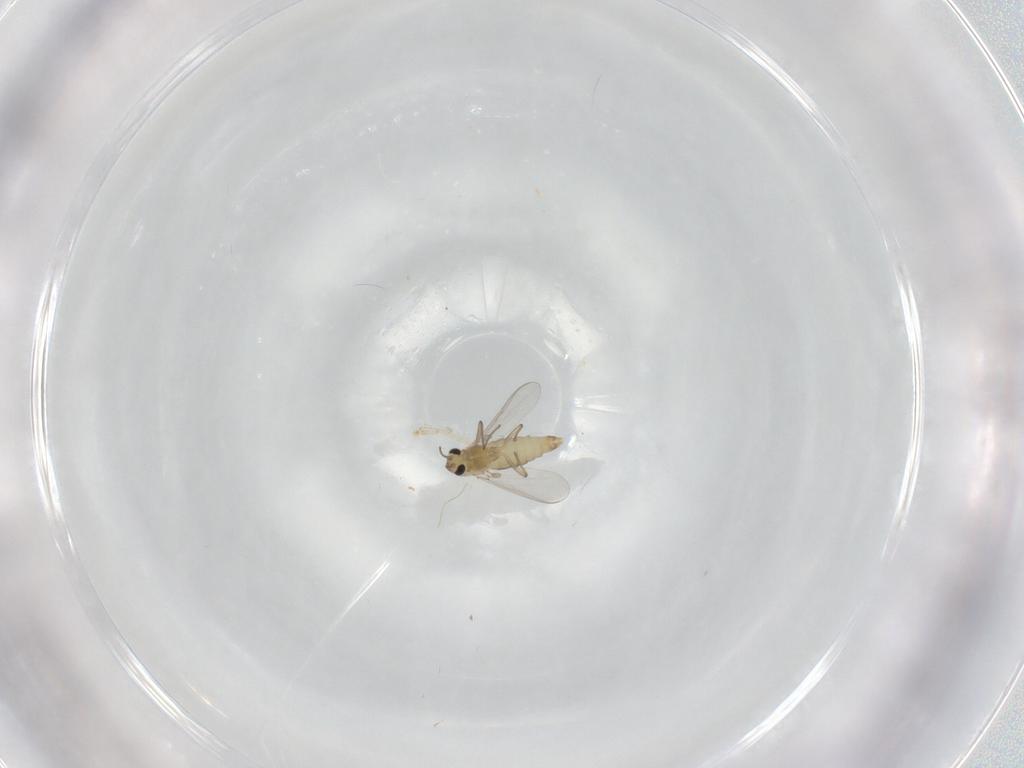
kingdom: Animalia
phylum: Arthropoda
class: Insecta
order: Diptera
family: Chironomidae
